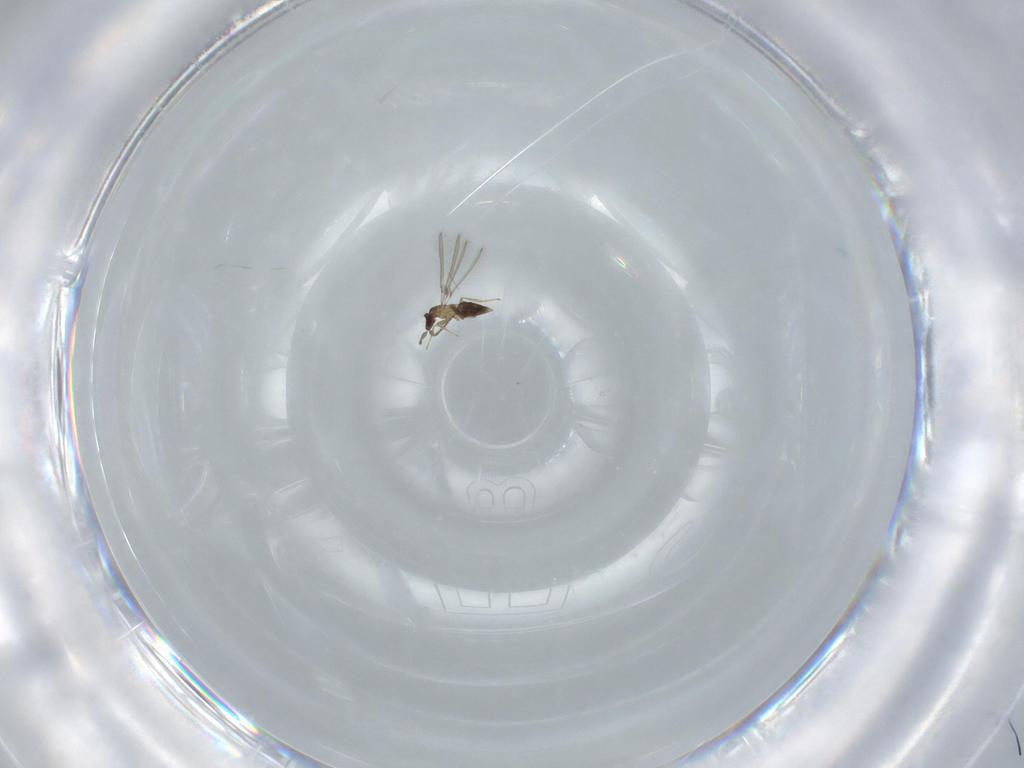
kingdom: Animalia
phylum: Arthropoda
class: Insecta
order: Hymenoptera
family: Mymaridae
